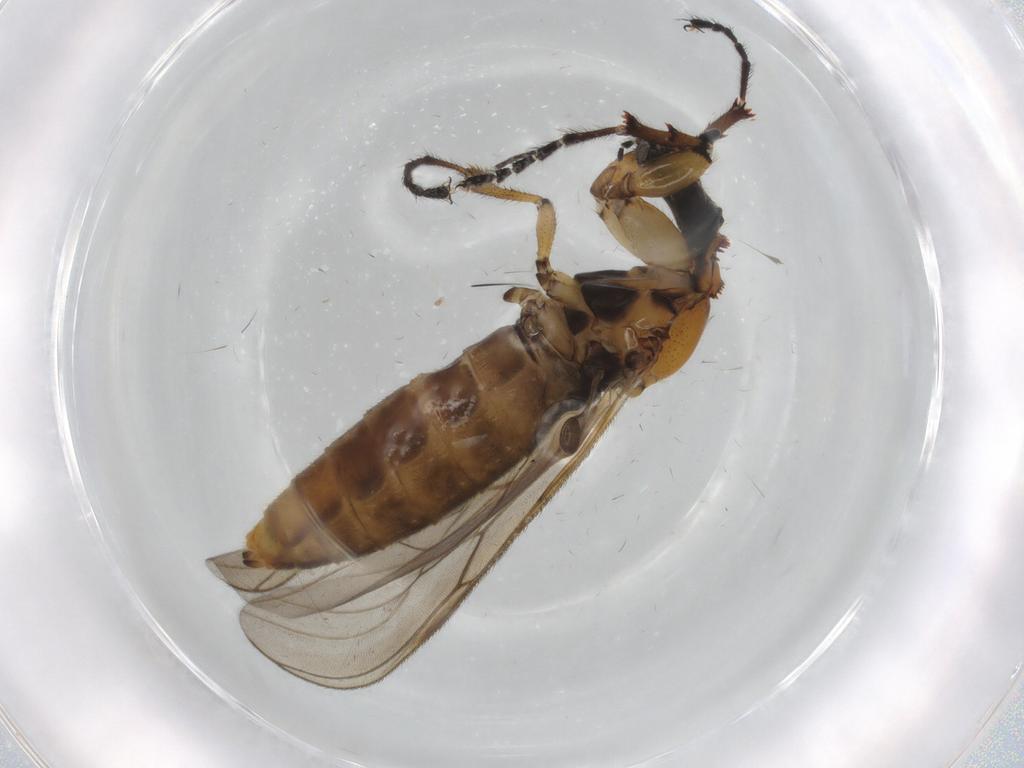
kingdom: Animalia
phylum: Arthropoda
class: Insecta
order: Diptera
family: Bibionidae
